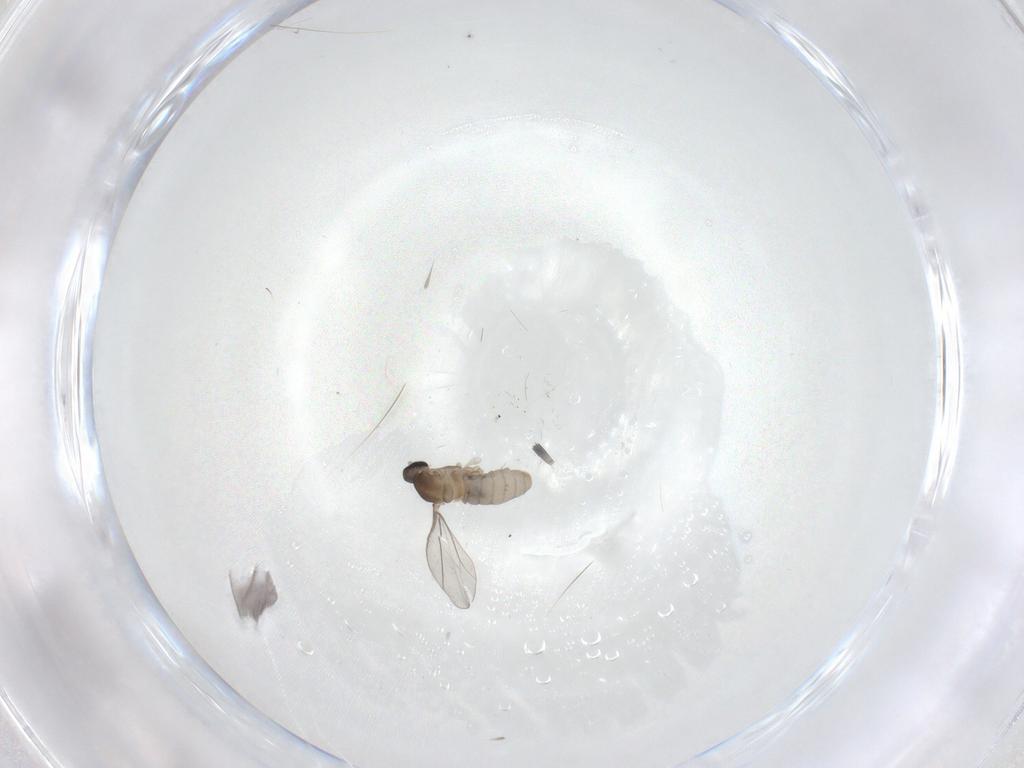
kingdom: Animalia
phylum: Arthropoda
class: Insecta
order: Diptera
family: Cecidomyiidae
